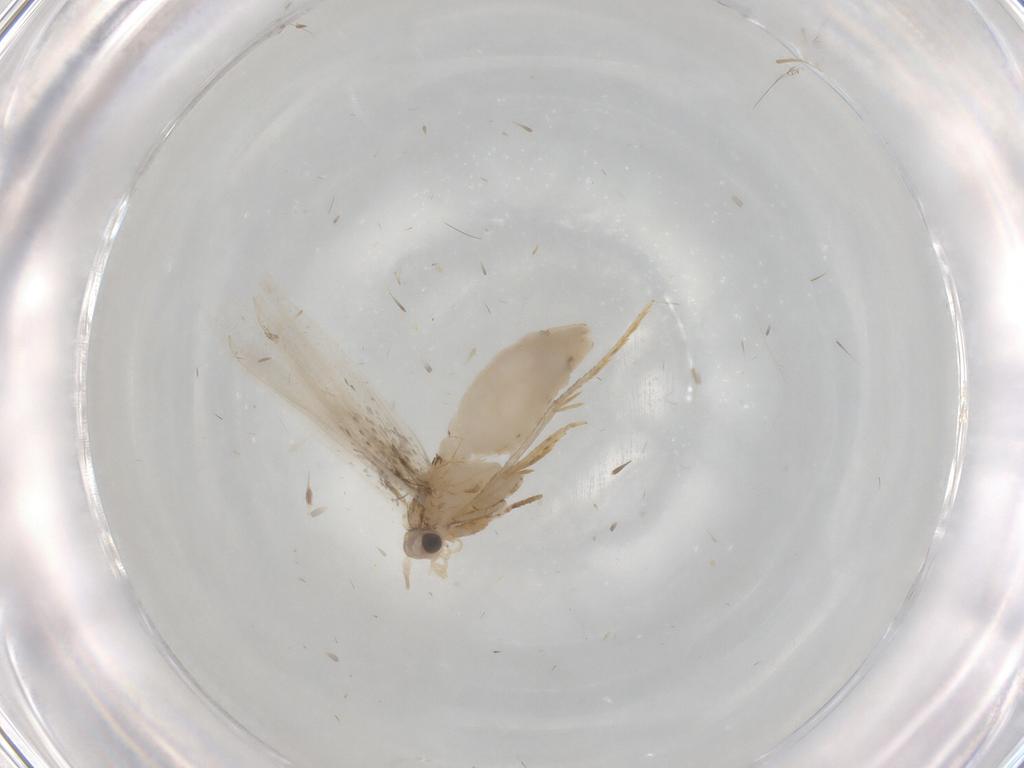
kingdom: Animalia
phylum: Arthropoda
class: Insecta
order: Lepidoptera
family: Tineidae
